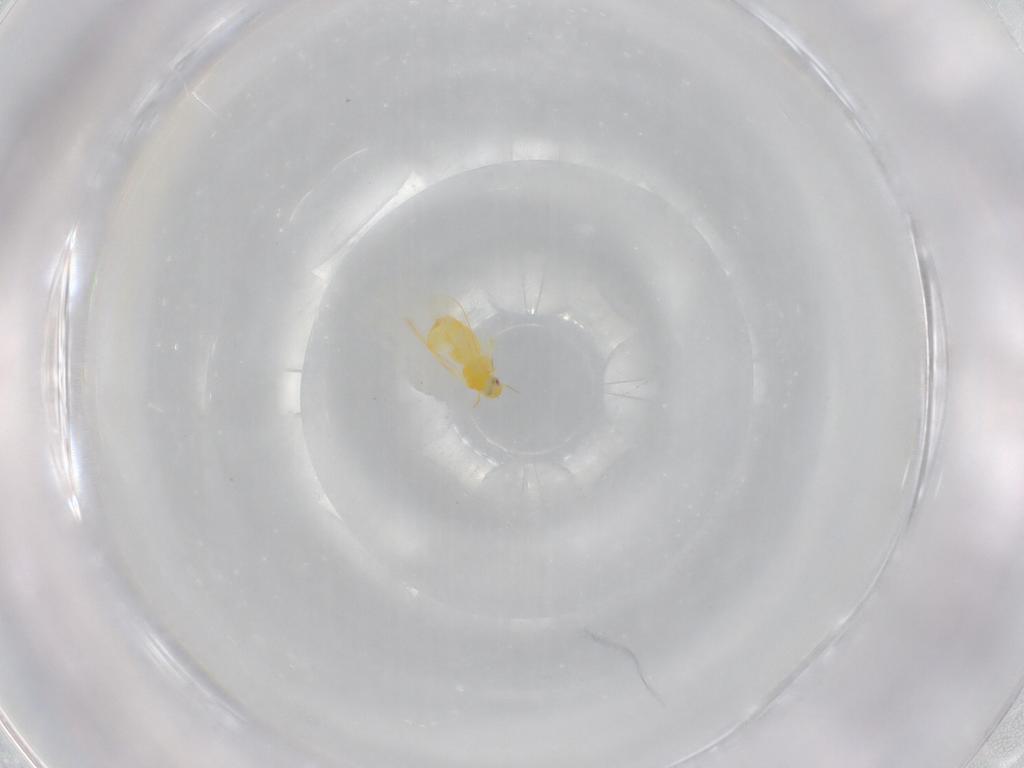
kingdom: Animalia
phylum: Arthropoda
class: Insecta
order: Hemiptera
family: Aleyrodidae
